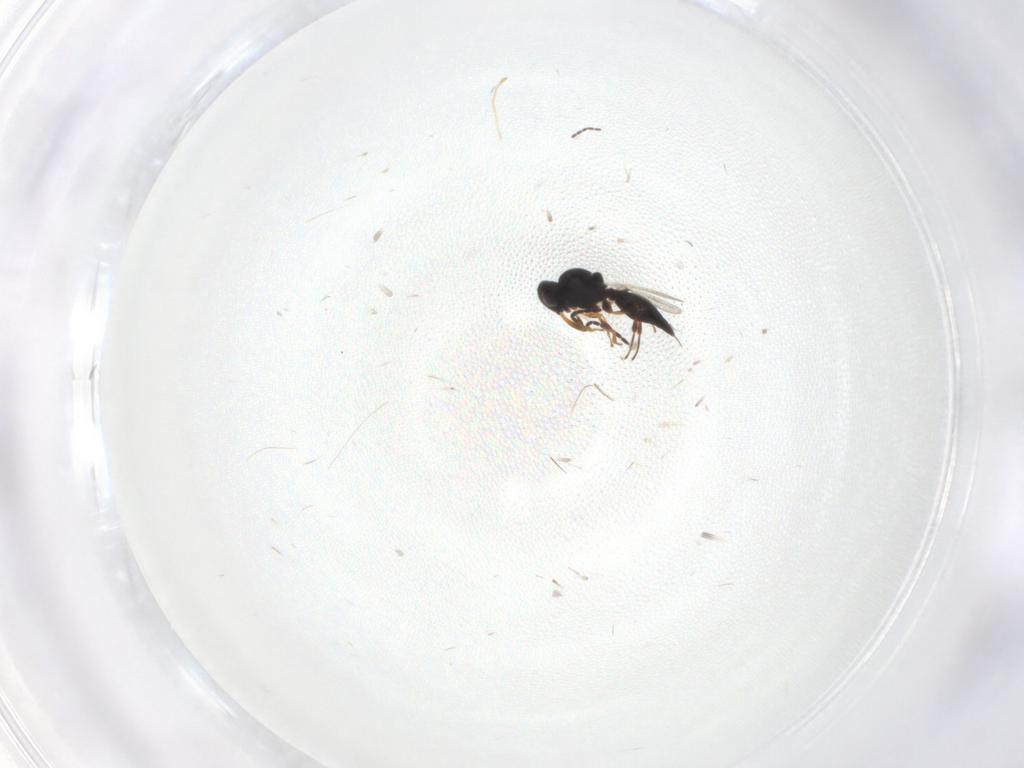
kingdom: Animalia
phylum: Arthropoda
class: Insecta
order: Hymenoptera
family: Platygastridae
